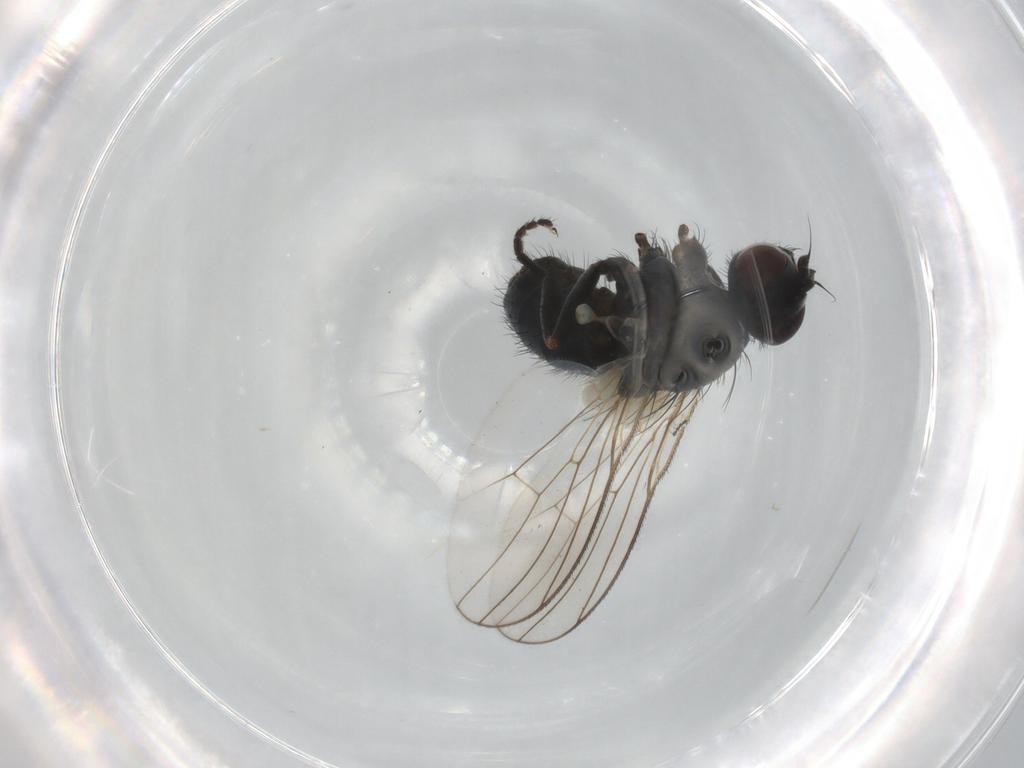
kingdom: Animalia
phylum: Arthropoda
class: Insecta
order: Diptera
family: Muscidae
